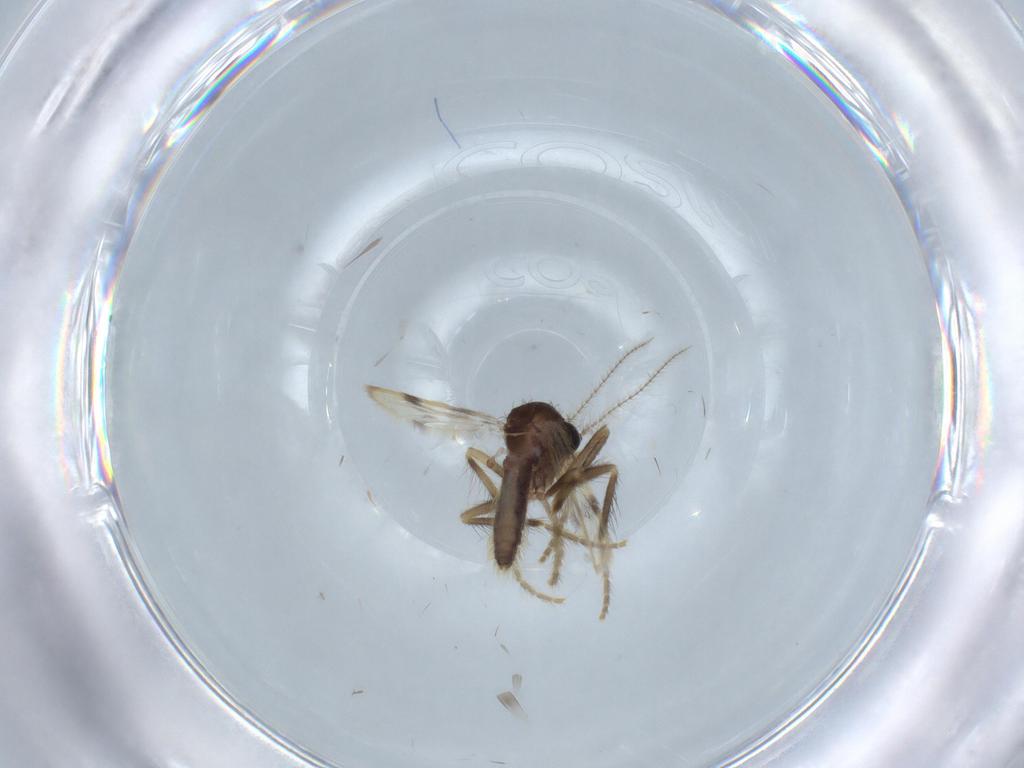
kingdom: Animalia
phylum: Arthropoda
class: Insecta
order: Diptera
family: Corethrellidae
